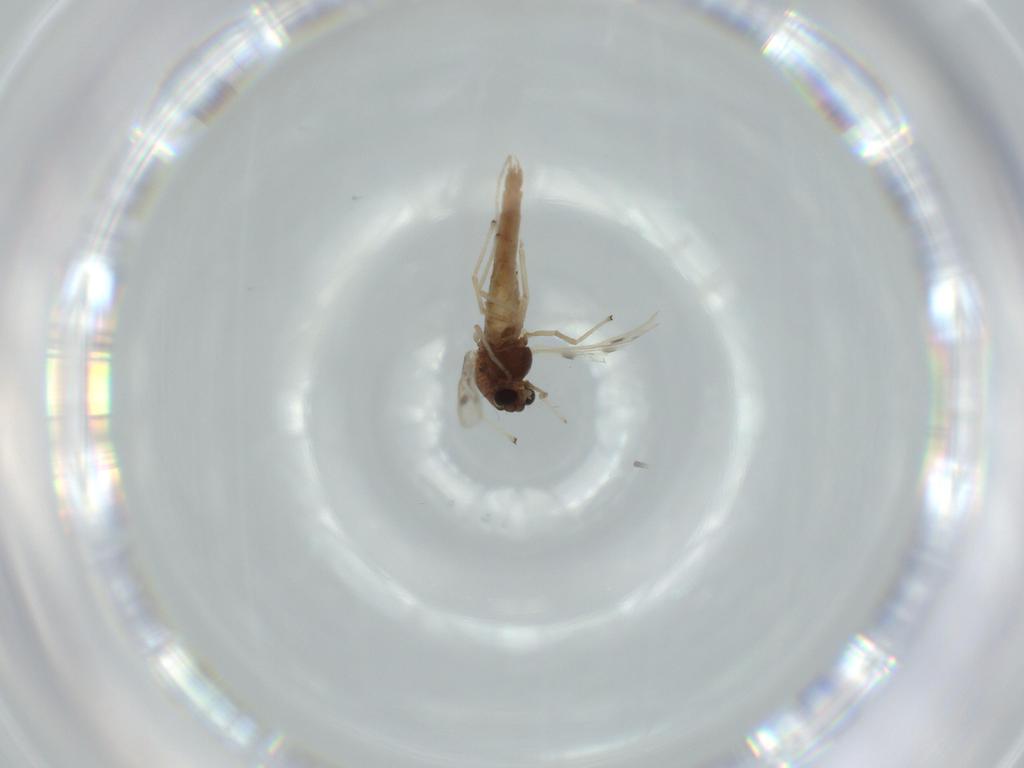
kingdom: Animalia
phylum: Arthropoda
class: Insecta
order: Diptera
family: Chironomidae
